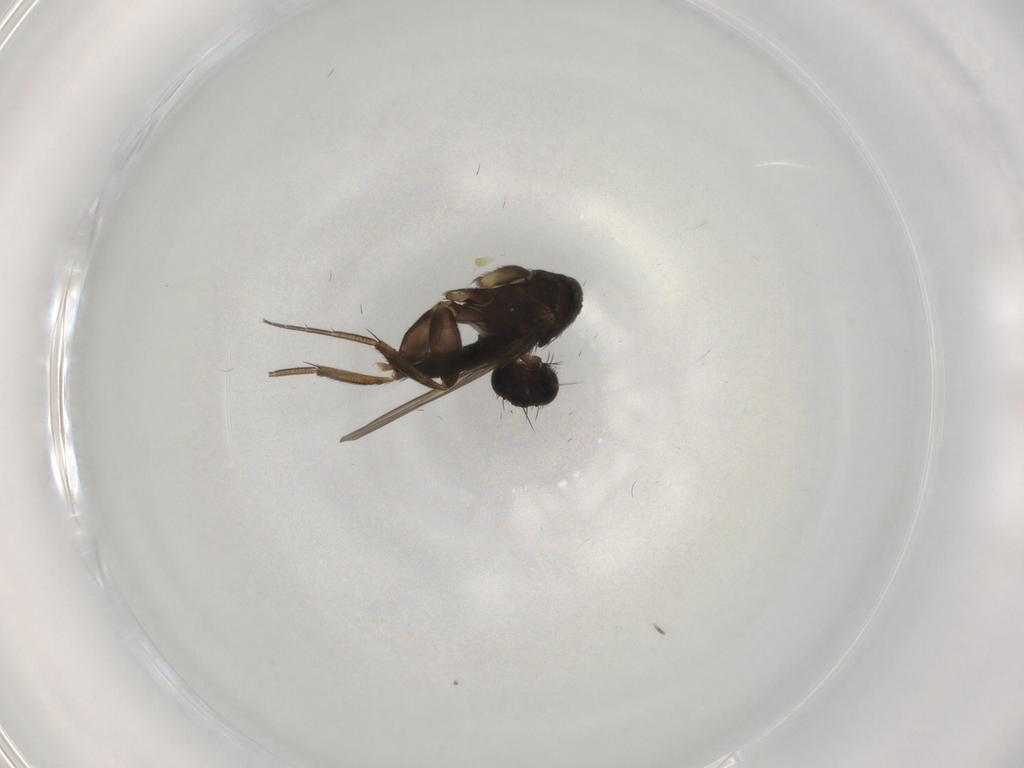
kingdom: Animalia
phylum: Arthropoda
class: Insecta
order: Diptera
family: Phoridae
